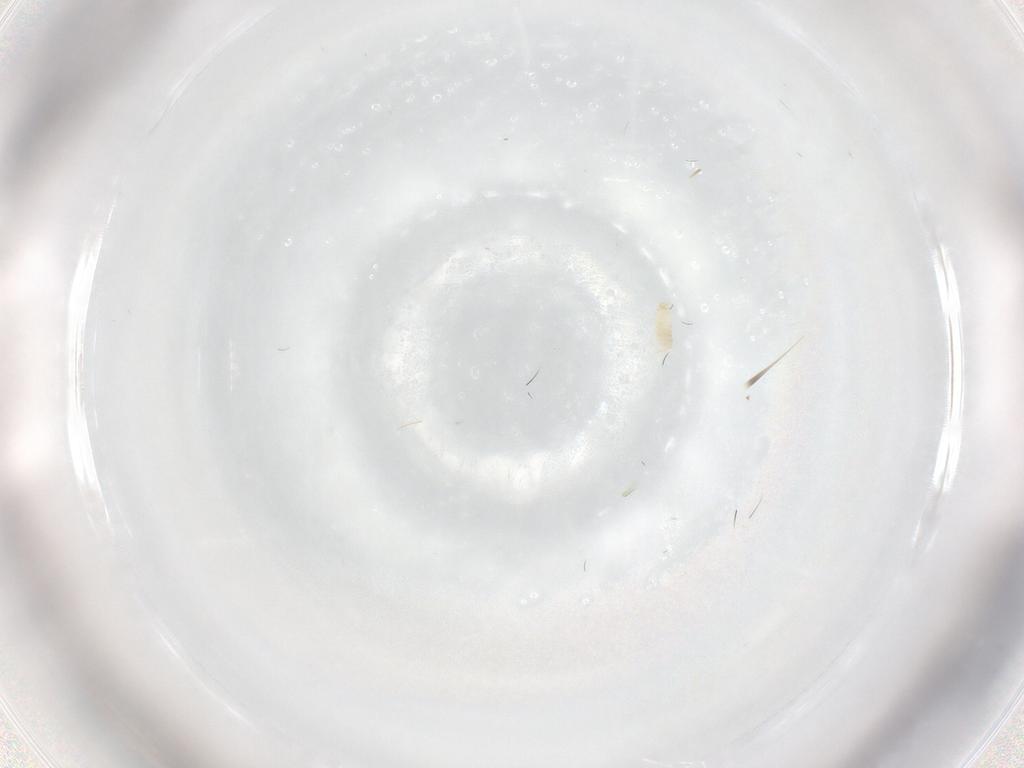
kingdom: Animalia
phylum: Arthropoda
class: Insecta
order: Diptera
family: Cecidomyiidae
